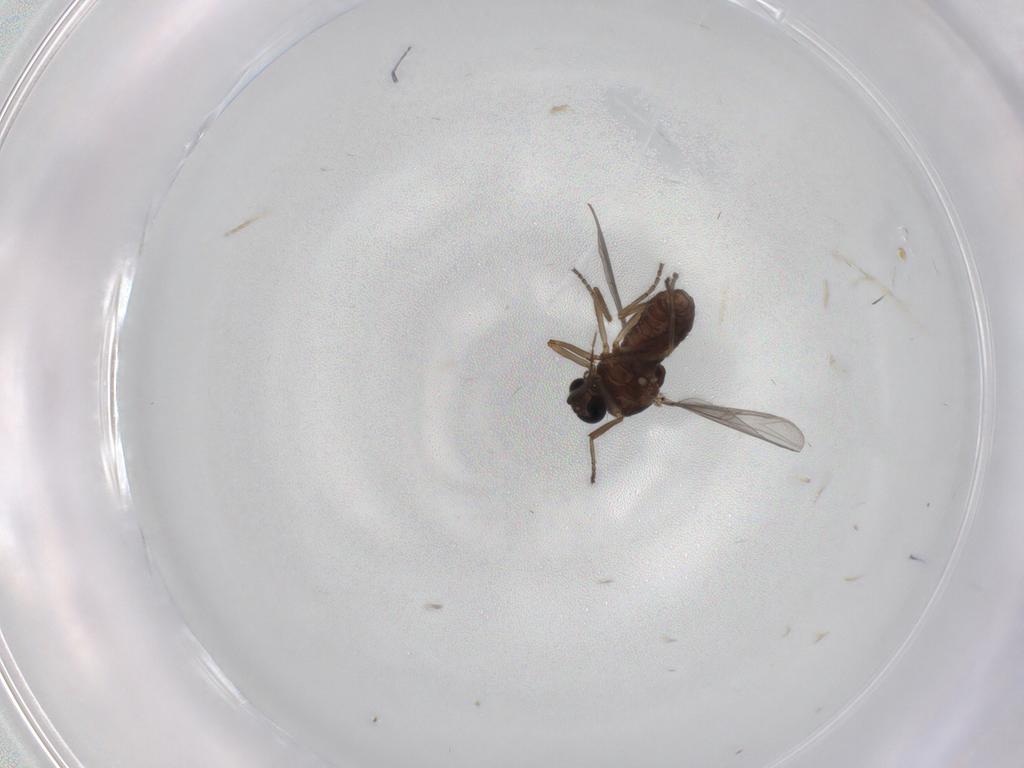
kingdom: Animalia
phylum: Arthropoda
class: Insecta
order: Diptera
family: Ceratopogonidae
